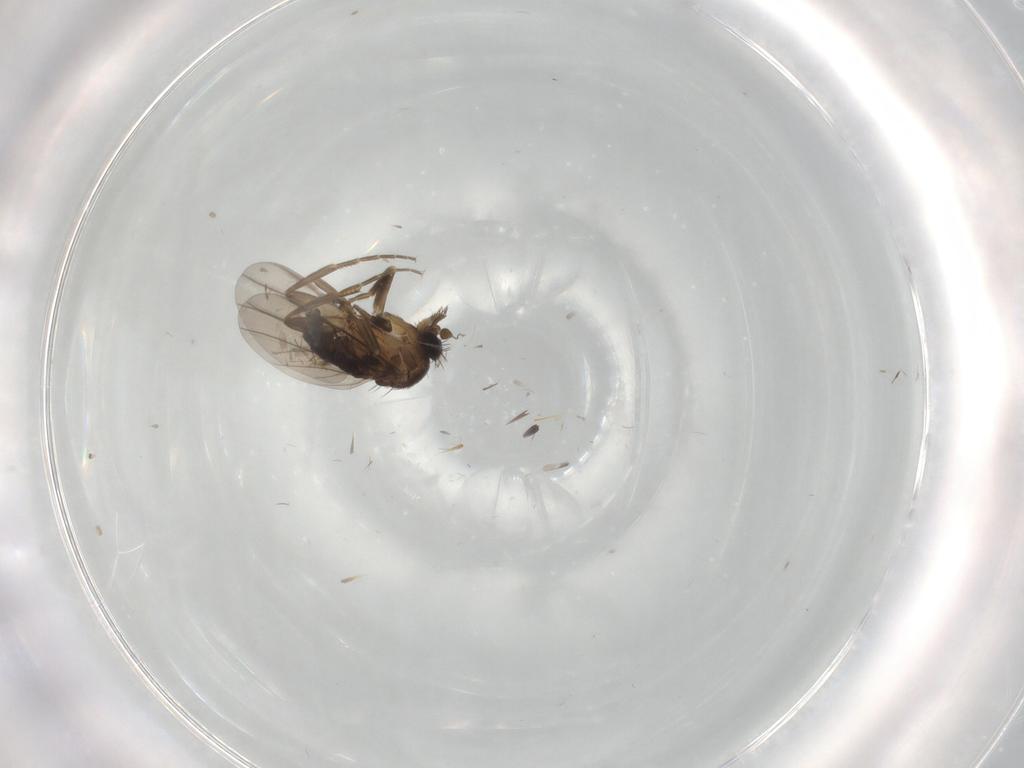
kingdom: Animalia
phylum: Arthropoda
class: Insecta
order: Diptera
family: Phoridae
